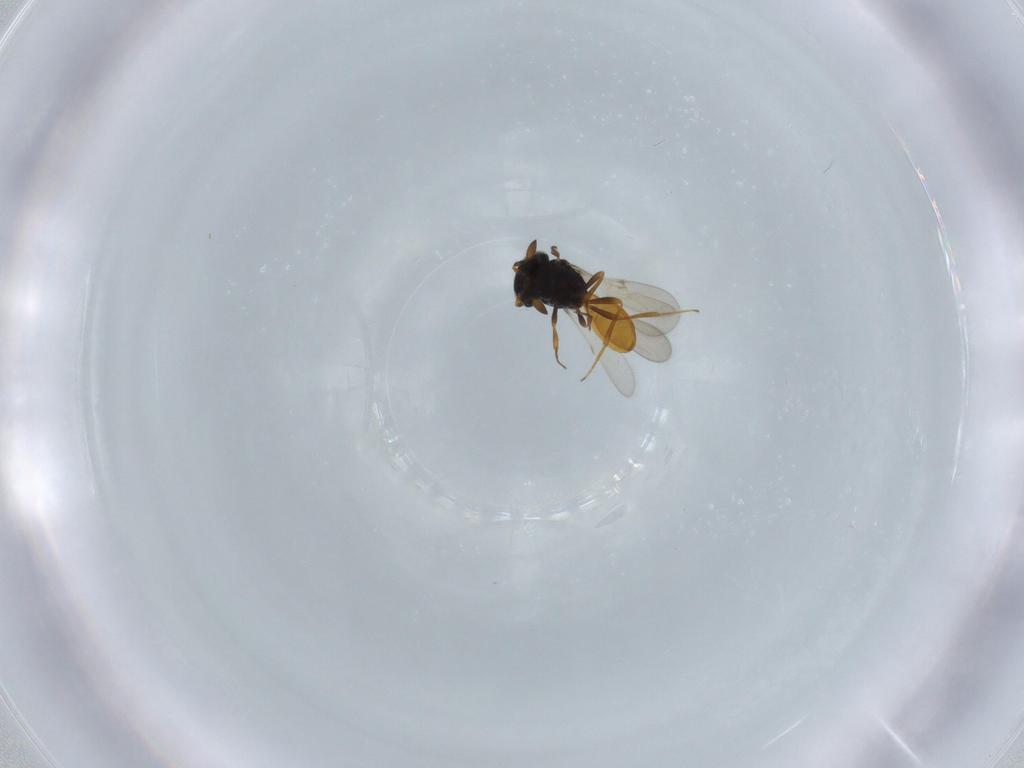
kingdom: Animalia
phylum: Arthropoda
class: Insecta
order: Hymenoptera
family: Scelionidae
